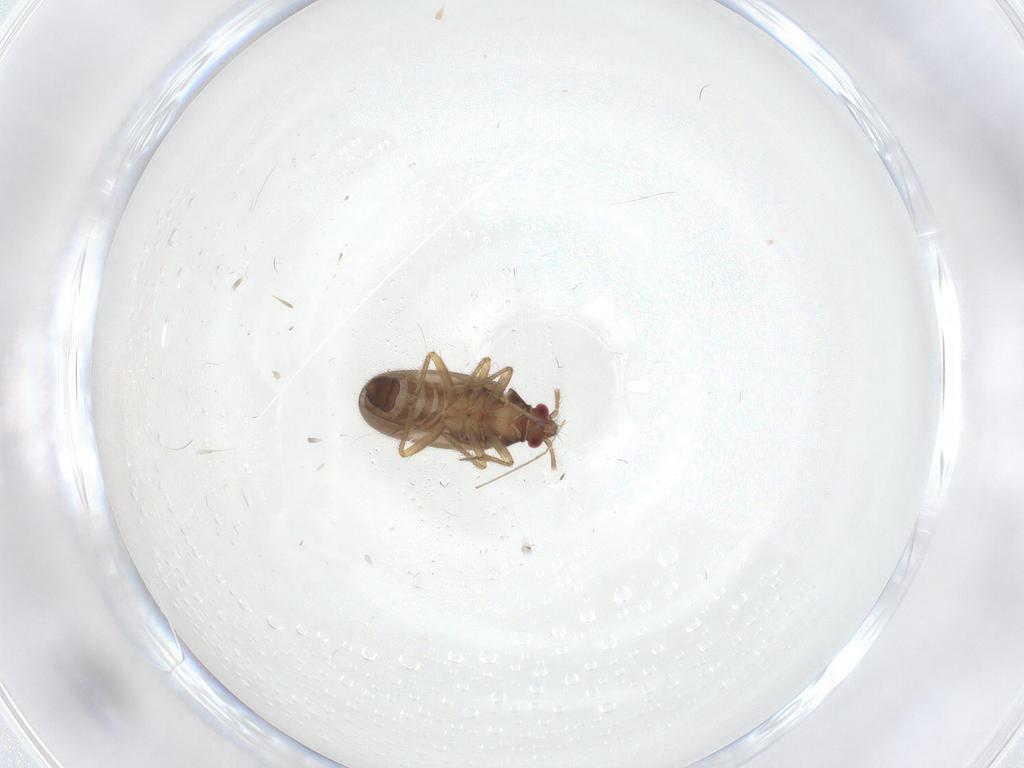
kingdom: Animalia
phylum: Arthropoda
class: Insecta
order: Hemiptera
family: Ceratocombidae
